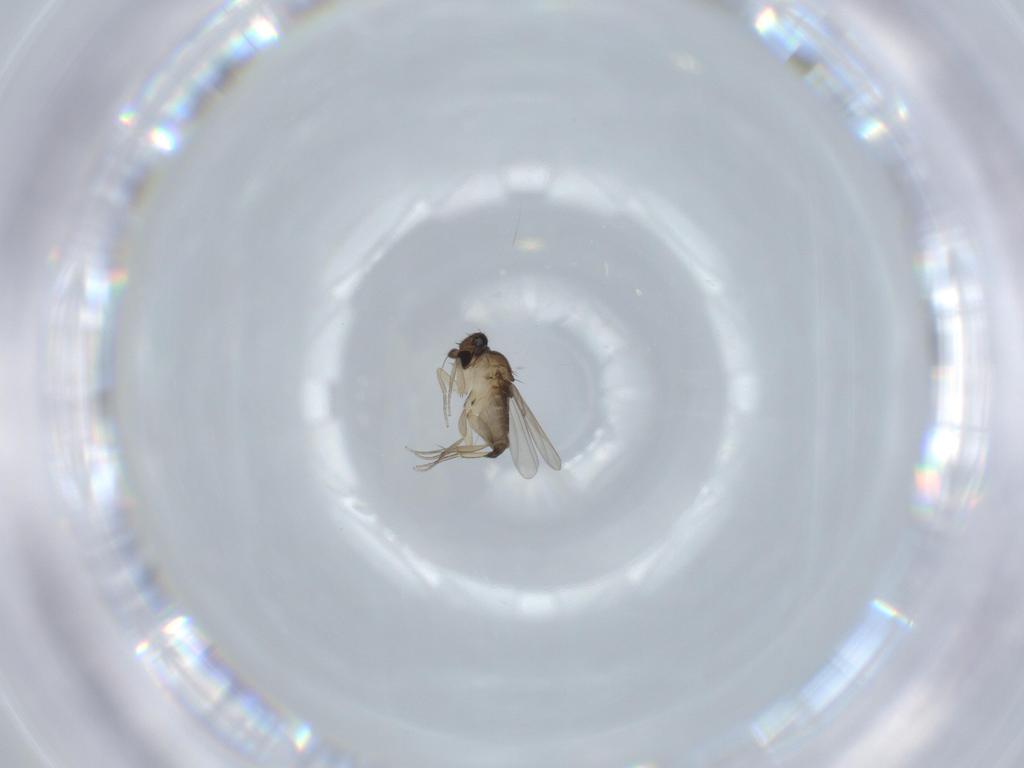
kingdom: Animalia
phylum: Arthropoda
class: Insecta
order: Diptera
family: Phoridae
